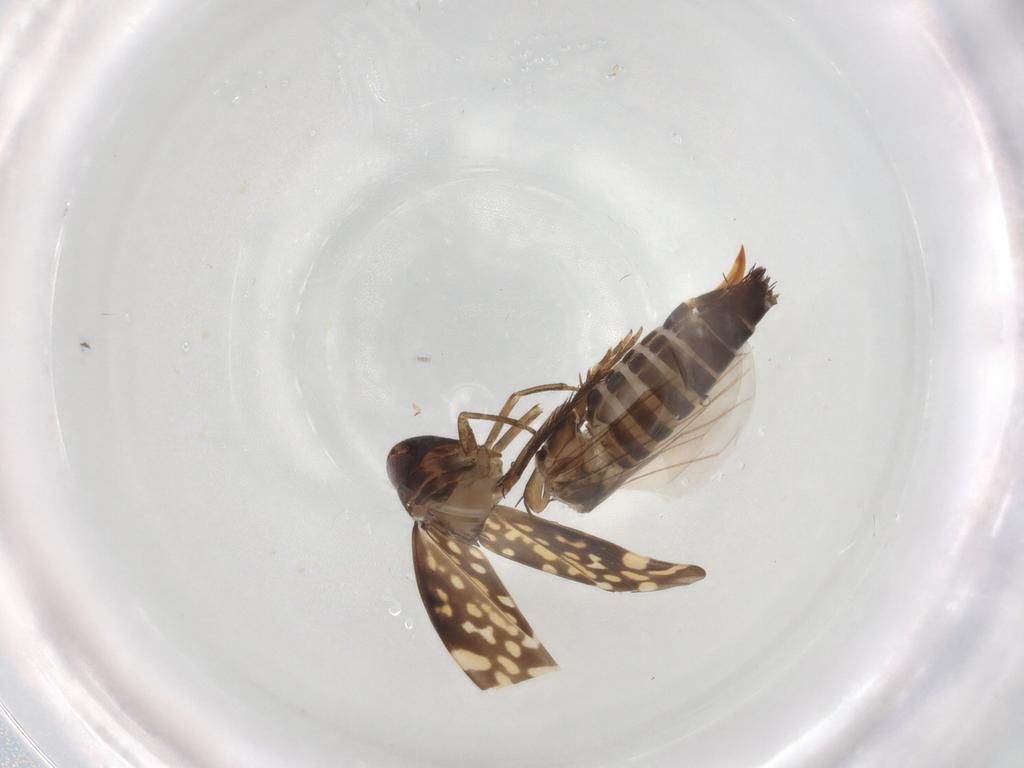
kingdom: Animalia
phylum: Arthropoda
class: Insecta
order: Hemiptera
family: Cicadellidae
